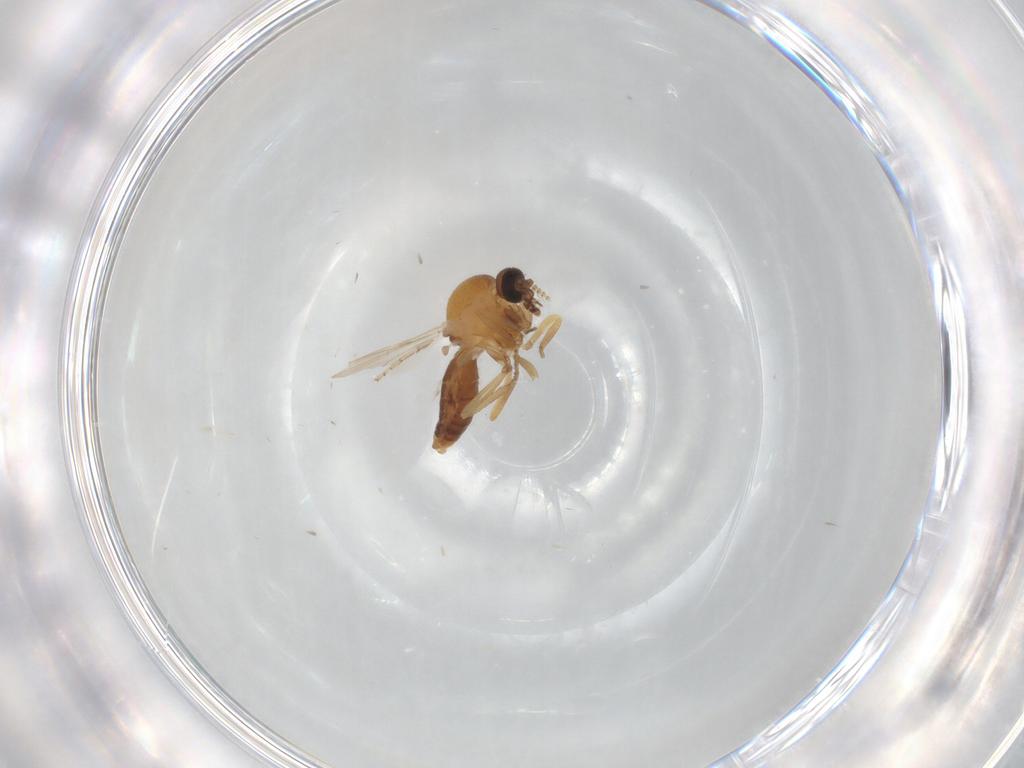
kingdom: Animalia
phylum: Arthropoda
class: Insecta
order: Diptera
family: Ceratopogonidae
